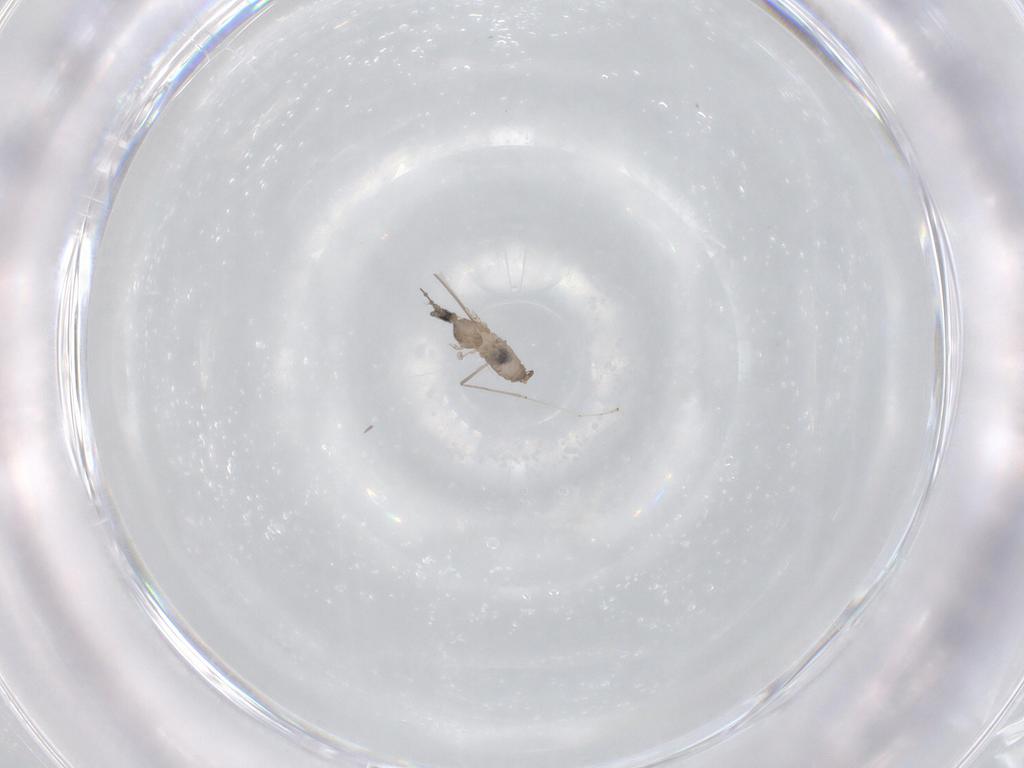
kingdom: Animalia
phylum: Arthropoda
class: Insecta
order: Diptera
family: Cecidomyiidae
